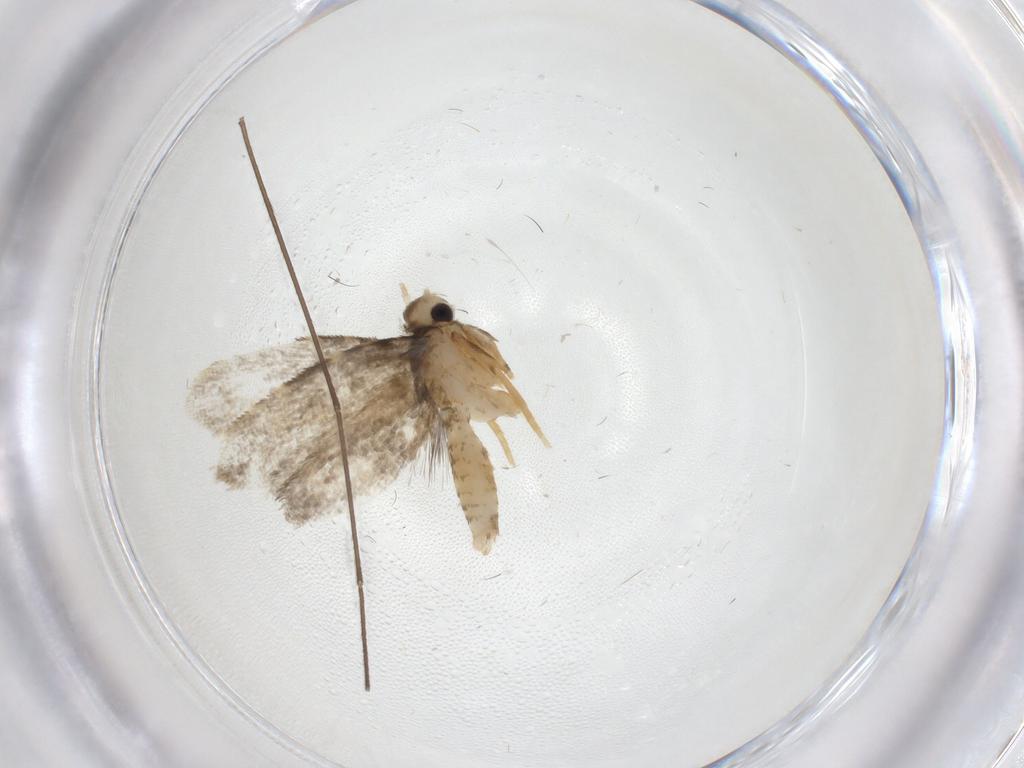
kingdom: Animalia
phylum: Arthropoda
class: Insecta
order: Lepidoptera
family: Psychidae
